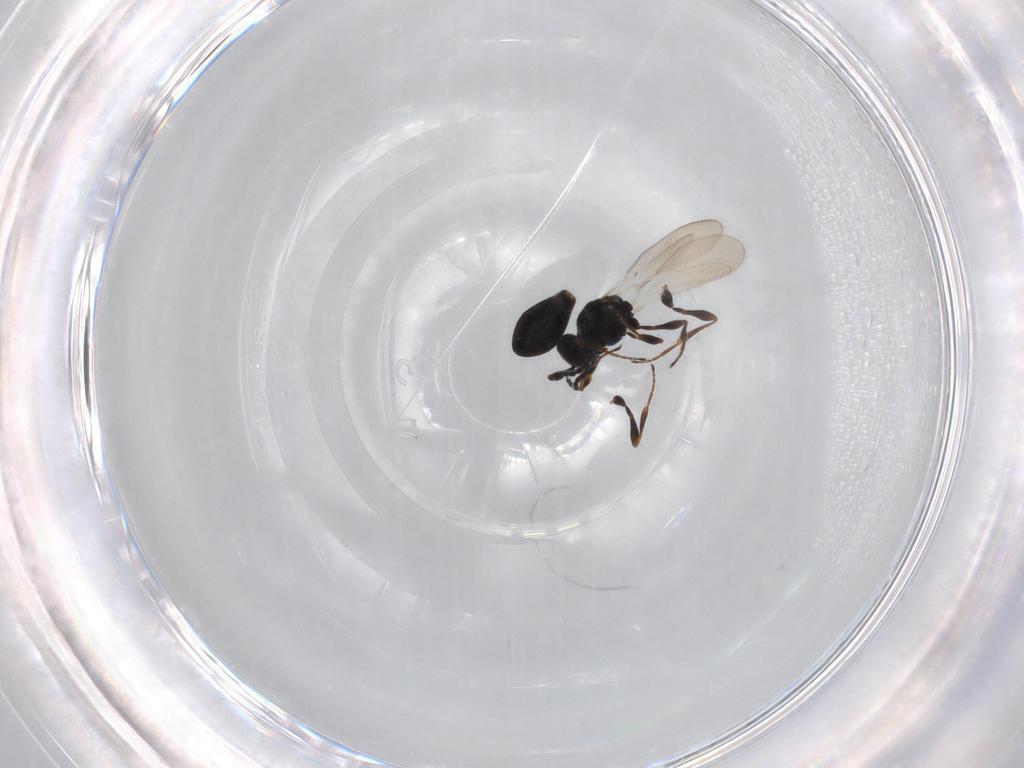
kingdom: Animalia
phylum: Arthropoda
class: Insecta
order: Hymenoptera
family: Platygastridae
